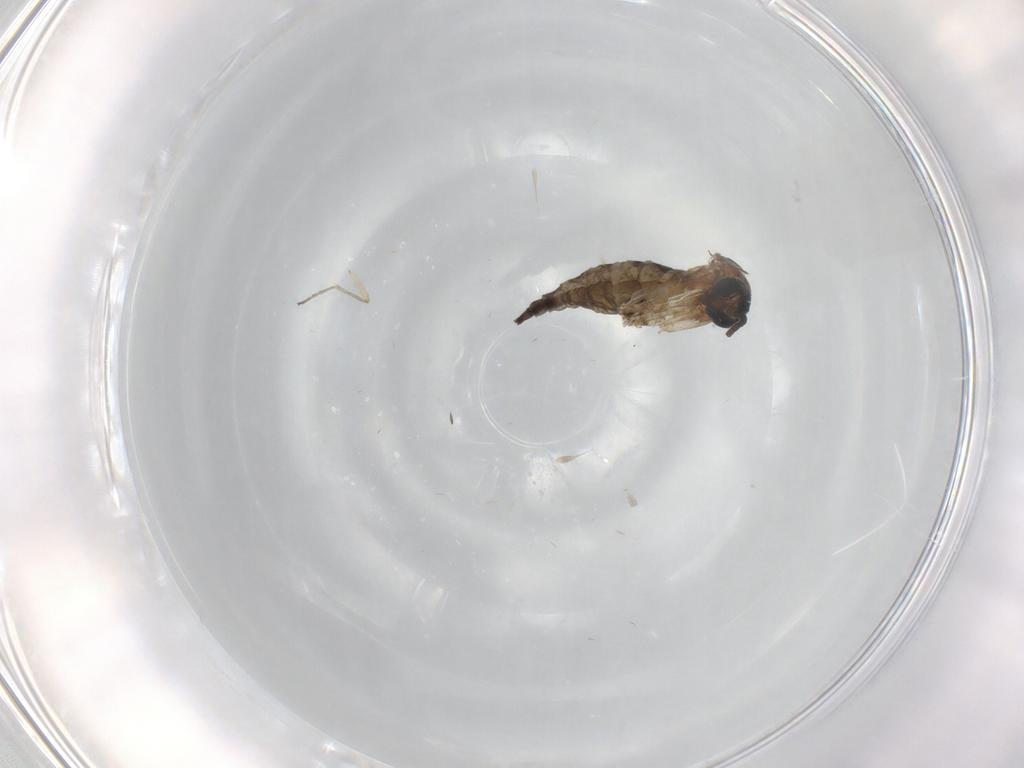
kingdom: Animalia
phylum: Arthropoda
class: Insecta
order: Diptera
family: Sciaridae
